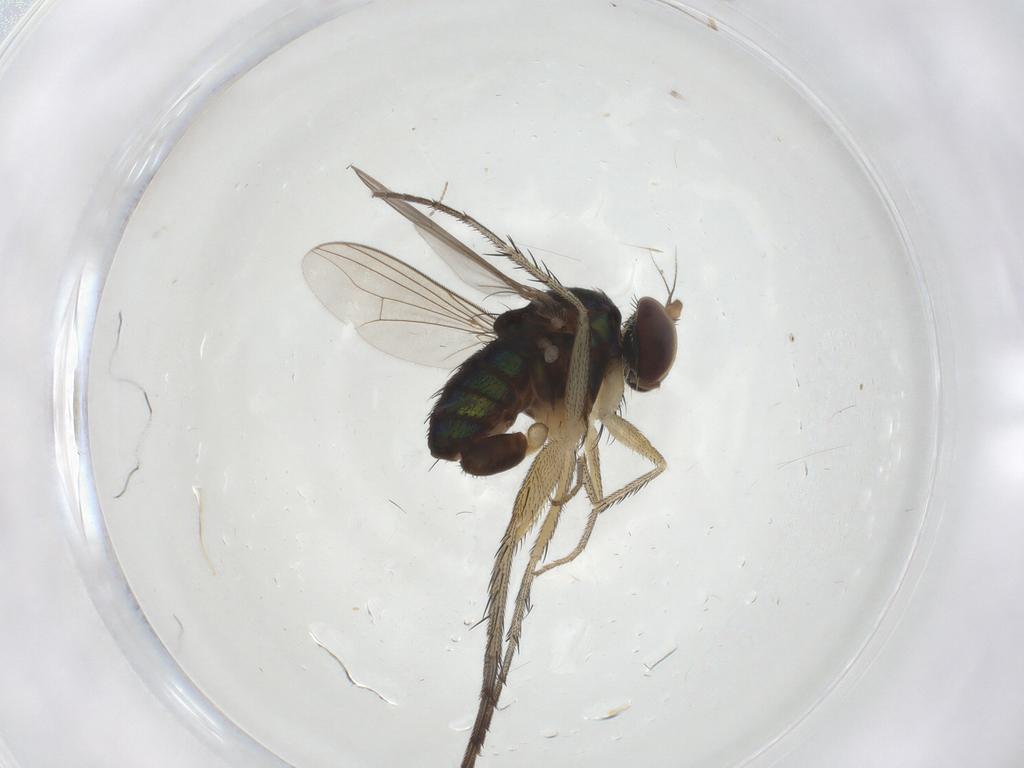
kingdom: Animalia
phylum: Arthropoda
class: Insecta
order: Diptera
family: Dolichopodidae
